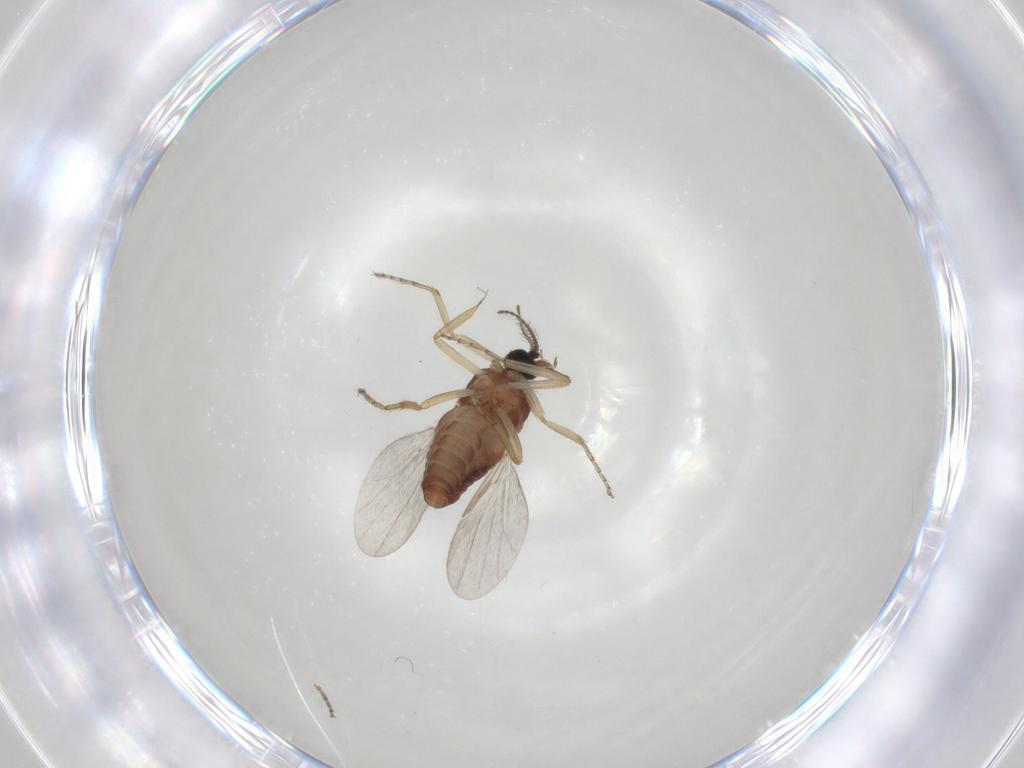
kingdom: Animalia
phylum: Arthropoda
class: Insecta
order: Diptera
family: Ceratopogonidae
